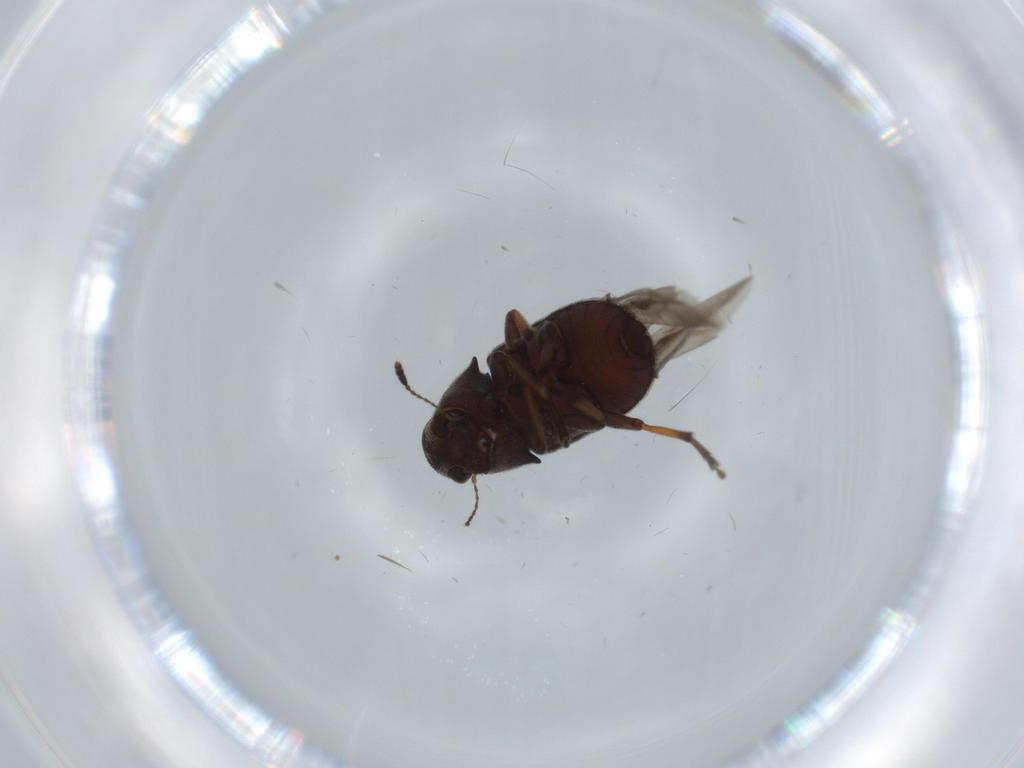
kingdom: Animalia
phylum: Arthropoda
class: Insecta
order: Coleoptera
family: Anthribidae
